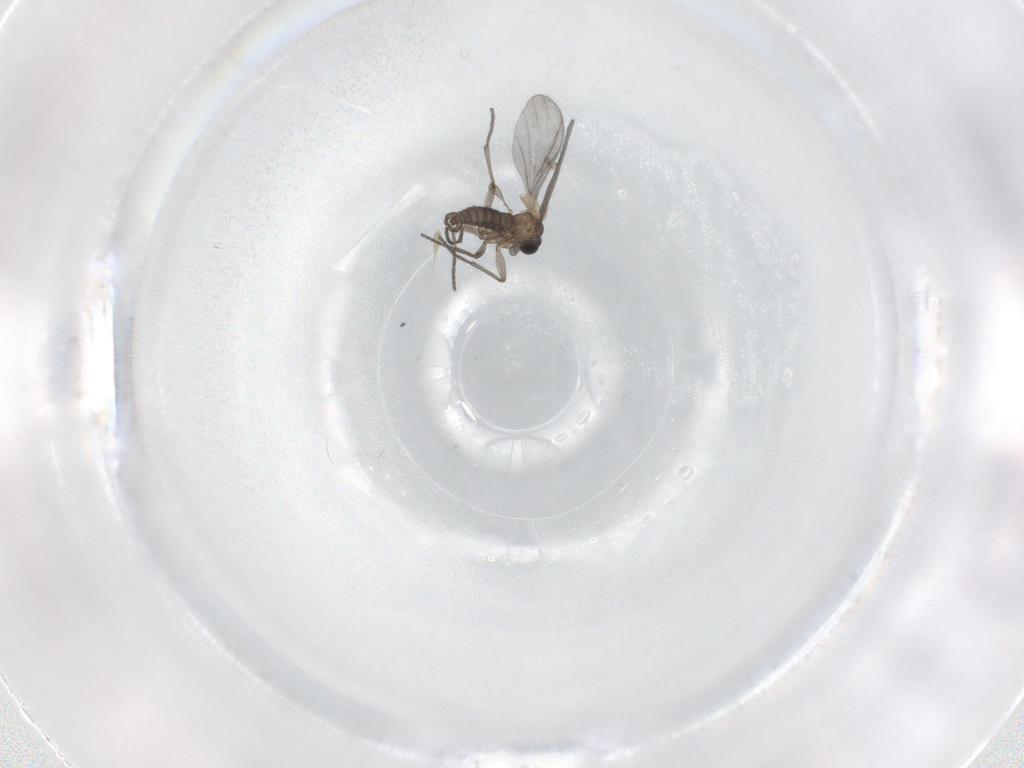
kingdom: Animalia
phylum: Arthropoda
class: Insecta
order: Diptera
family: Sciaridae
